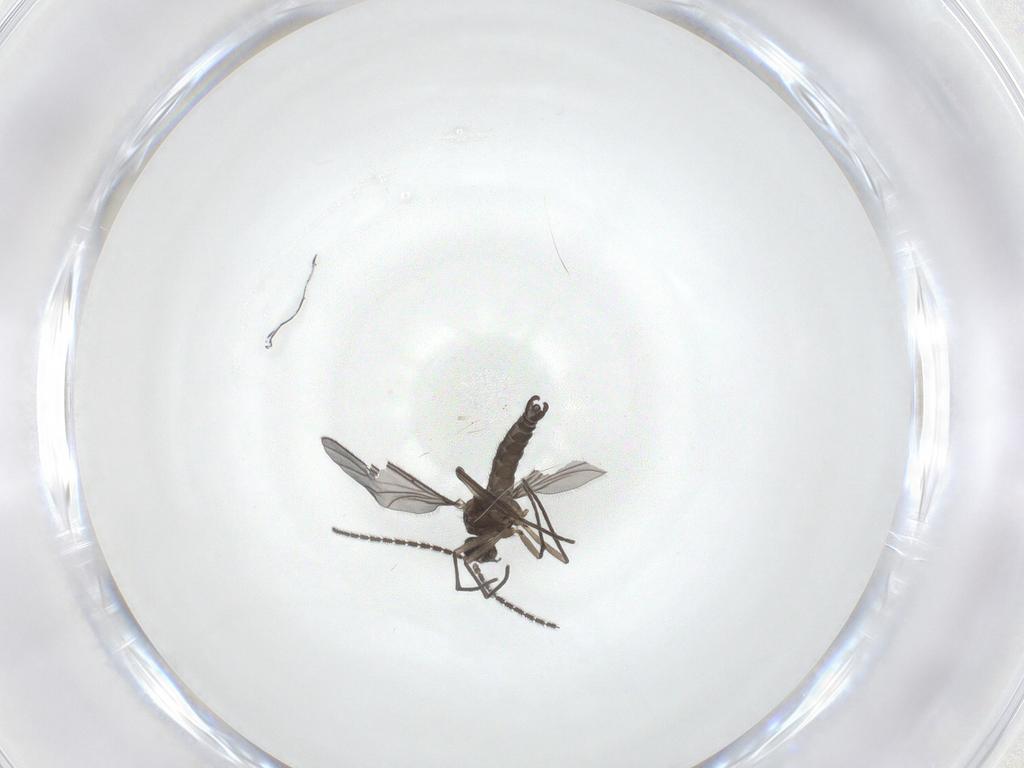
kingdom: Animalia
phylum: Arthropoda
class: Insecta
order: Diptera
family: Sciaridae
